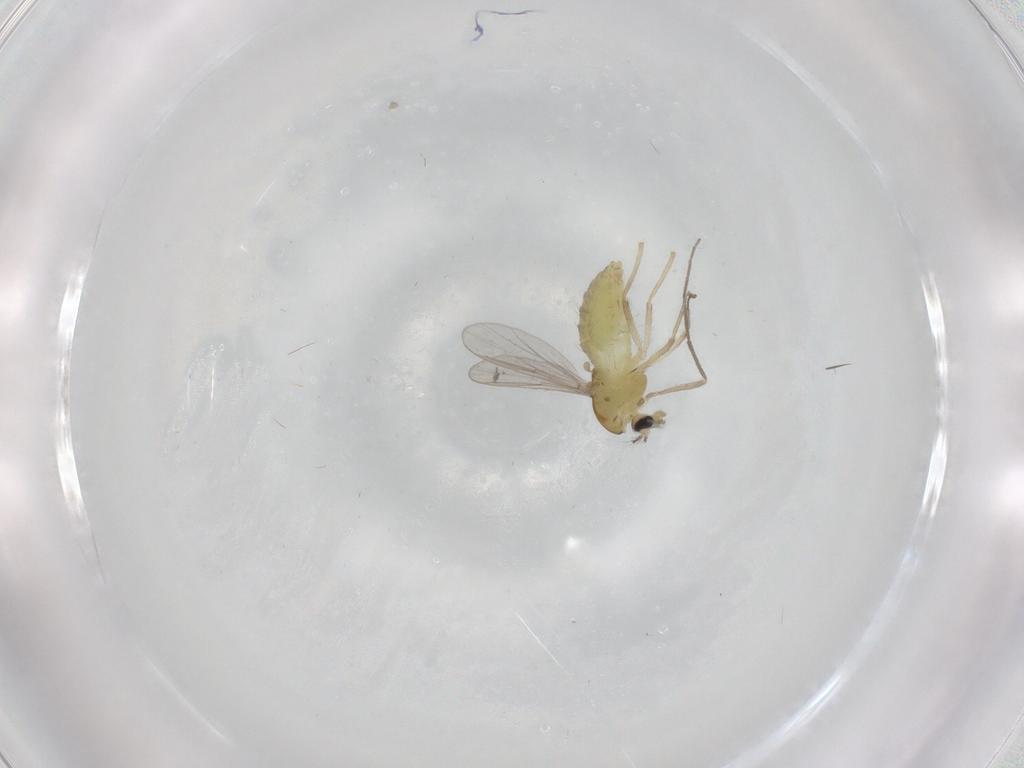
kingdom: Animalia
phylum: Arthropoda
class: Insecta
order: Diptera
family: Chironomidae
